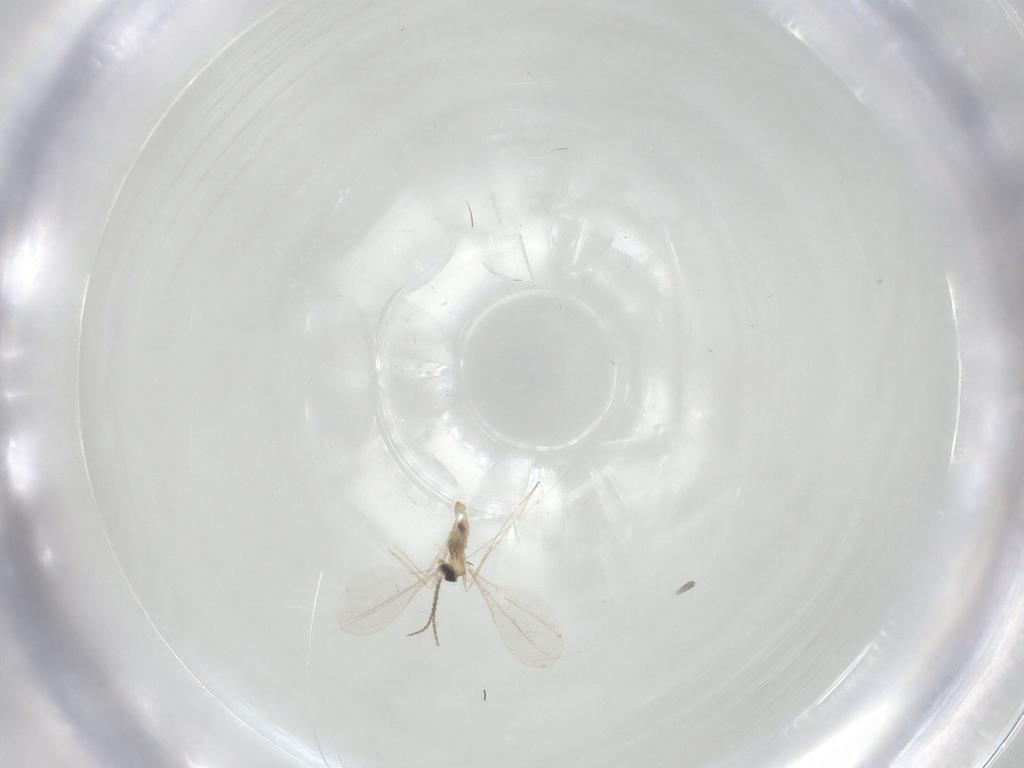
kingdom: Animalia
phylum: Arthropoda
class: Insecta
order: Diptera
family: Cecidomyiidae
